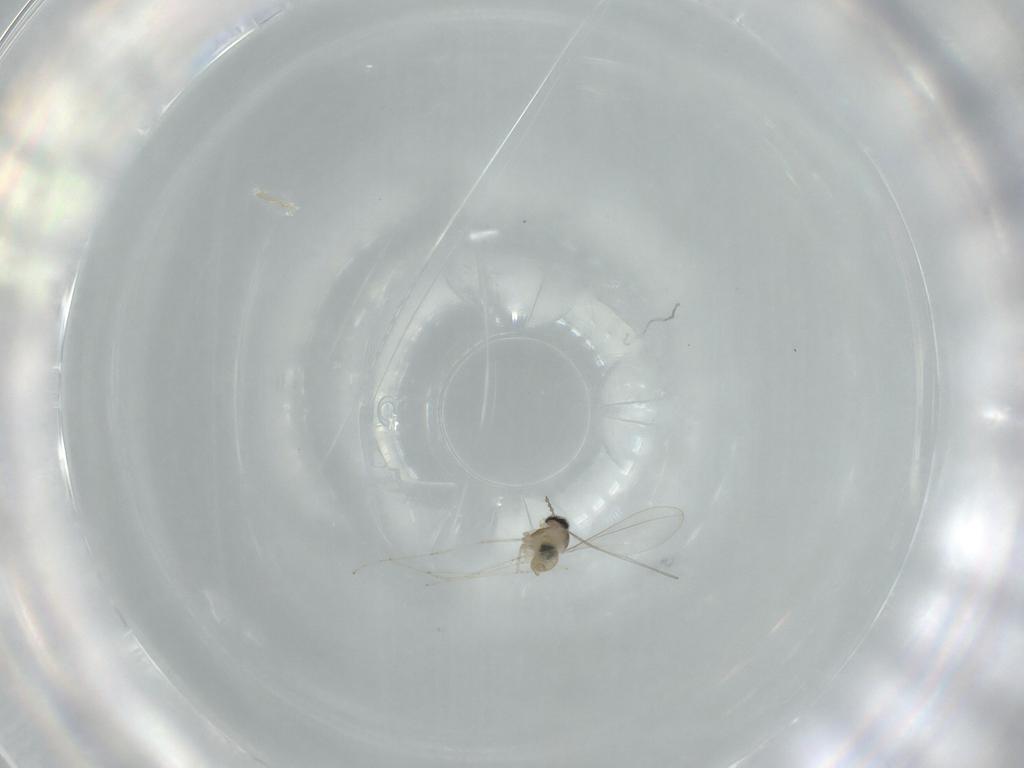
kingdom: Animalia
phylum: Arthropoda
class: Insecta
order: Diptera
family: Cecidomyiidae
